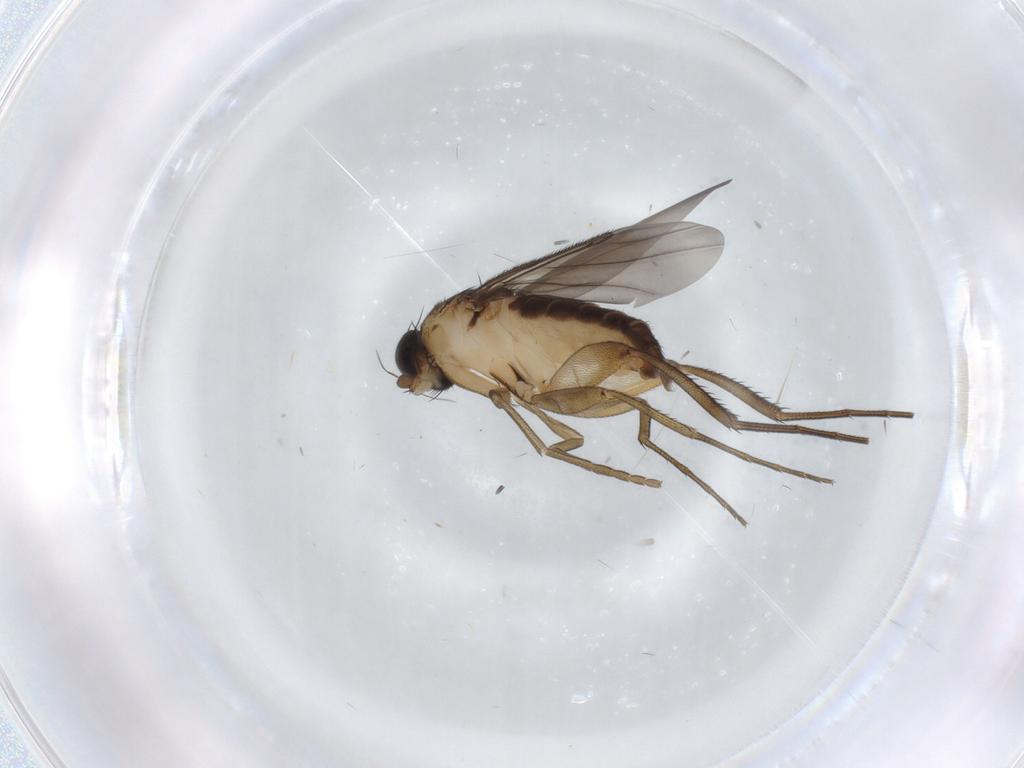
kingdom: Animalia
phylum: Arthropoda
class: Insecta
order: Diptera
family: Phoridae
